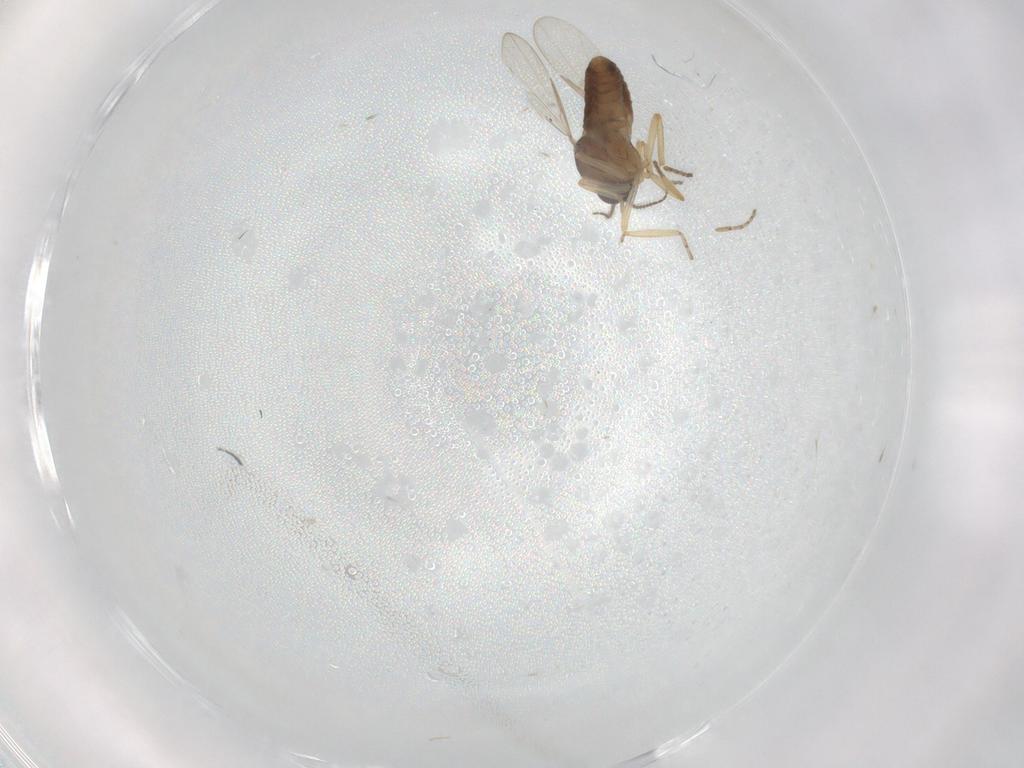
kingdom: Animalia
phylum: Arthropoda
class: Insecta
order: Diptera
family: Ceratopogonidae
